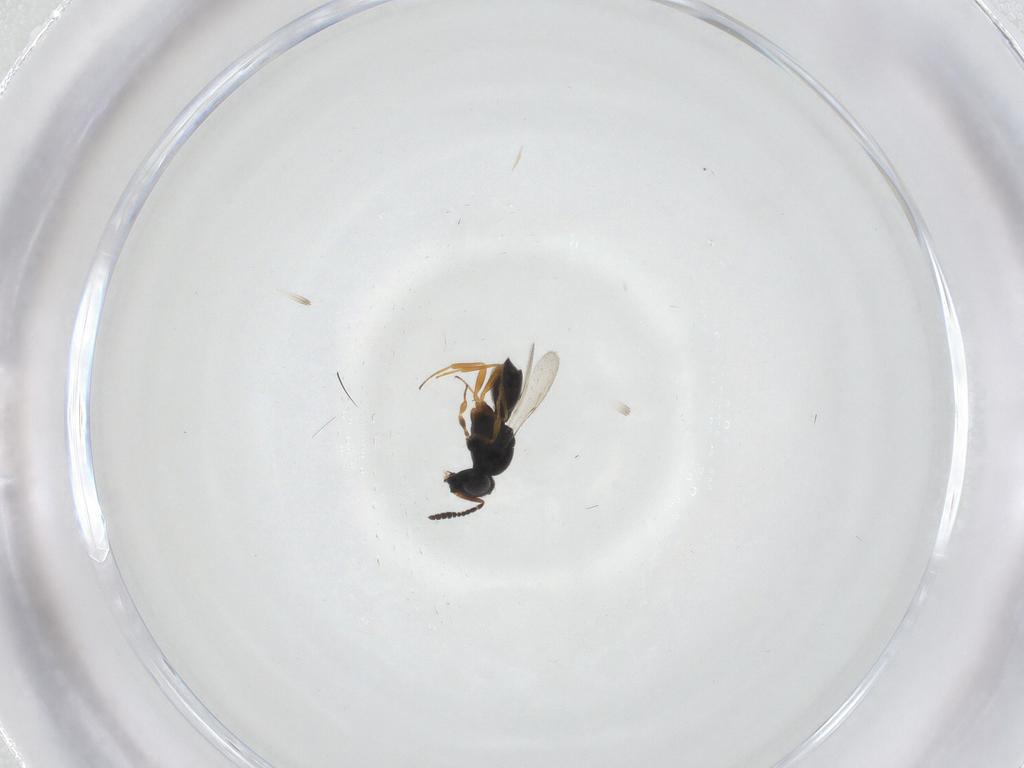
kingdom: Animalia
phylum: Arthropoda
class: Insecta
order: Hymenoptera
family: Scelionidae
